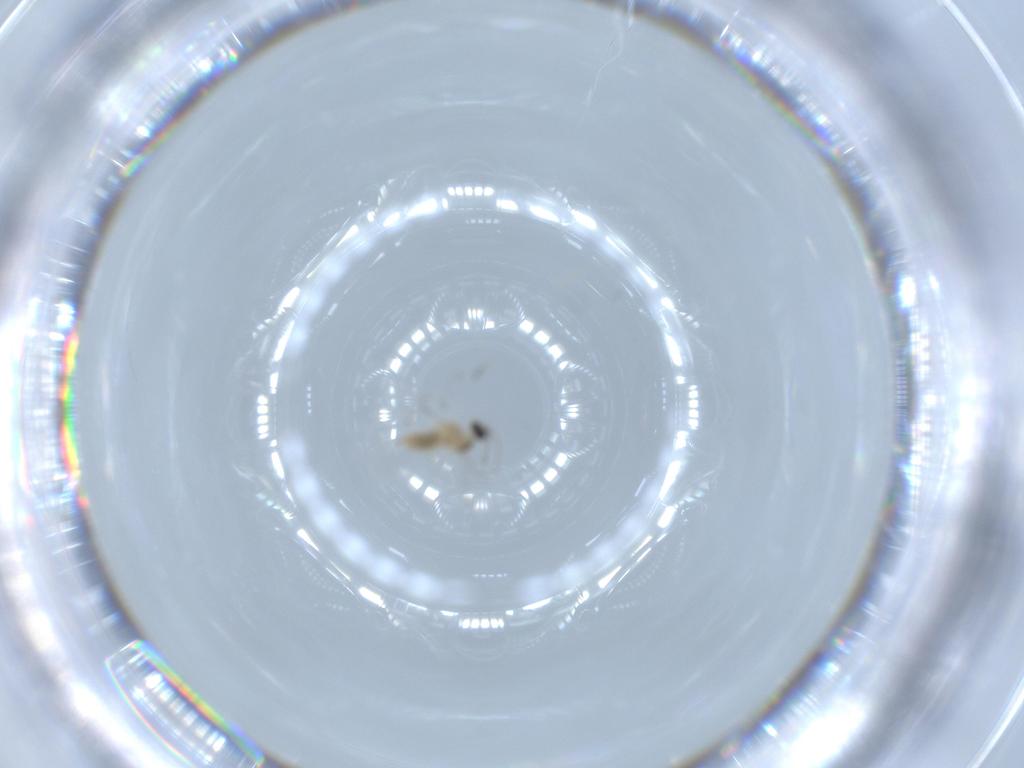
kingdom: Animalia
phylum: Arthropoda
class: Insecta
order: Diptera
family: Cecidomyiidae
